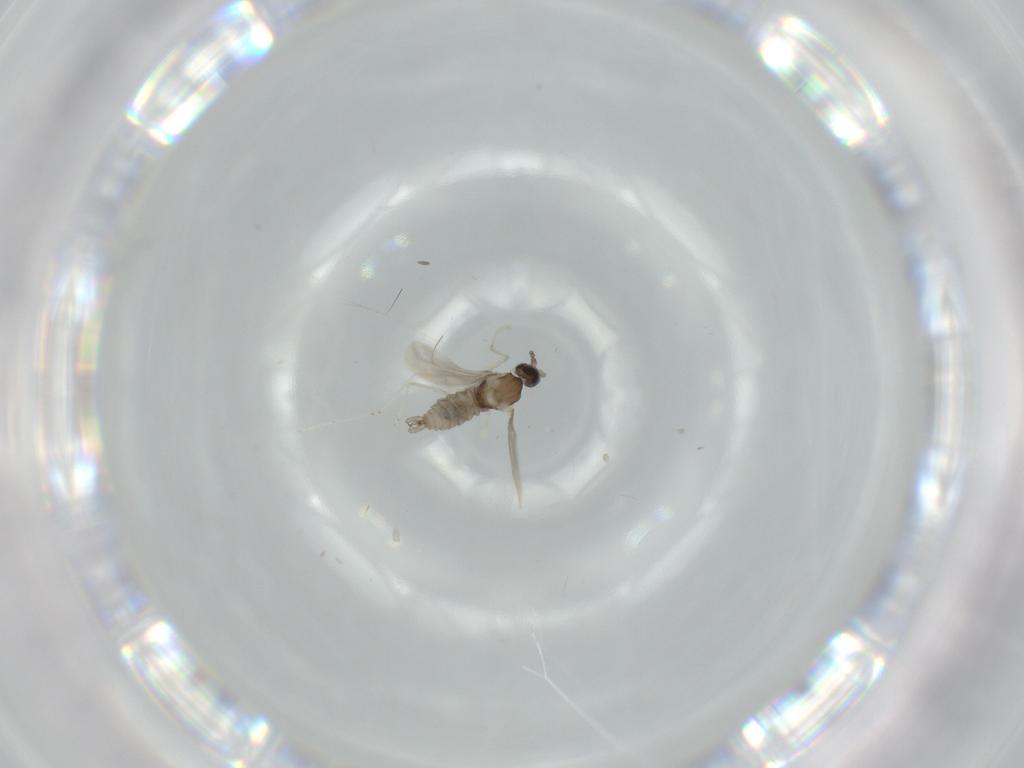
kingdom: Animalia
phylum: Arthropoda
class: Insecta
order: Diptera
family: Cecidomyiidae
